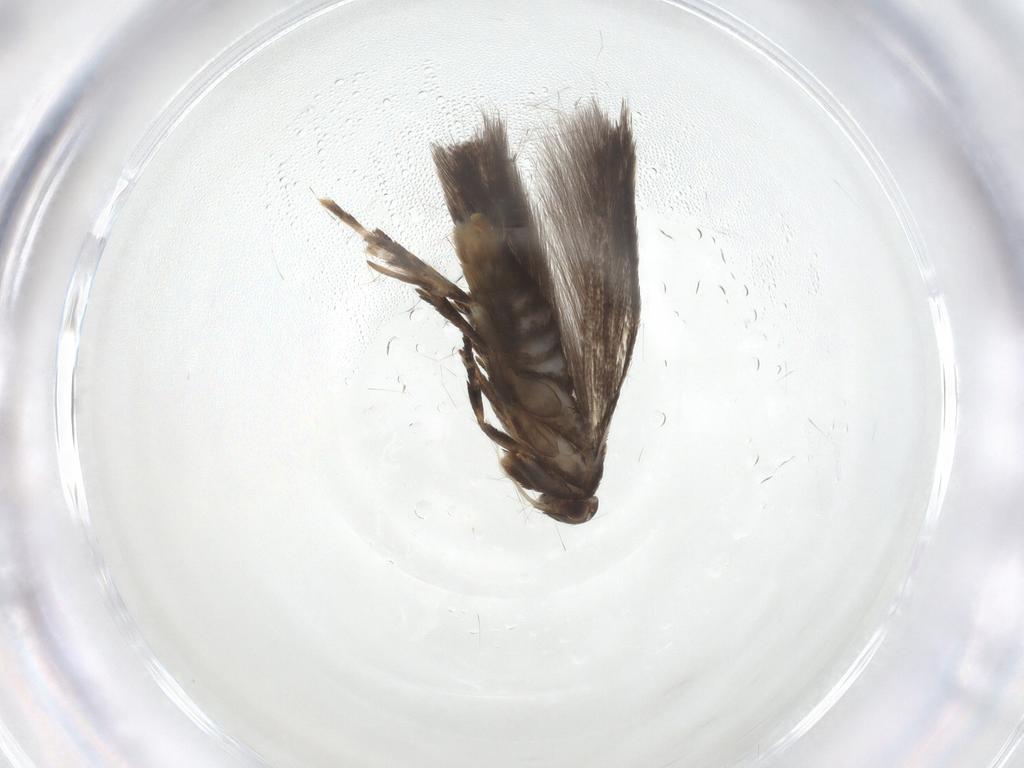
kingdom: Animalia
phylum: Arthropoda
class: Insecta
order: Lepidoptera
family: Elachistidae
